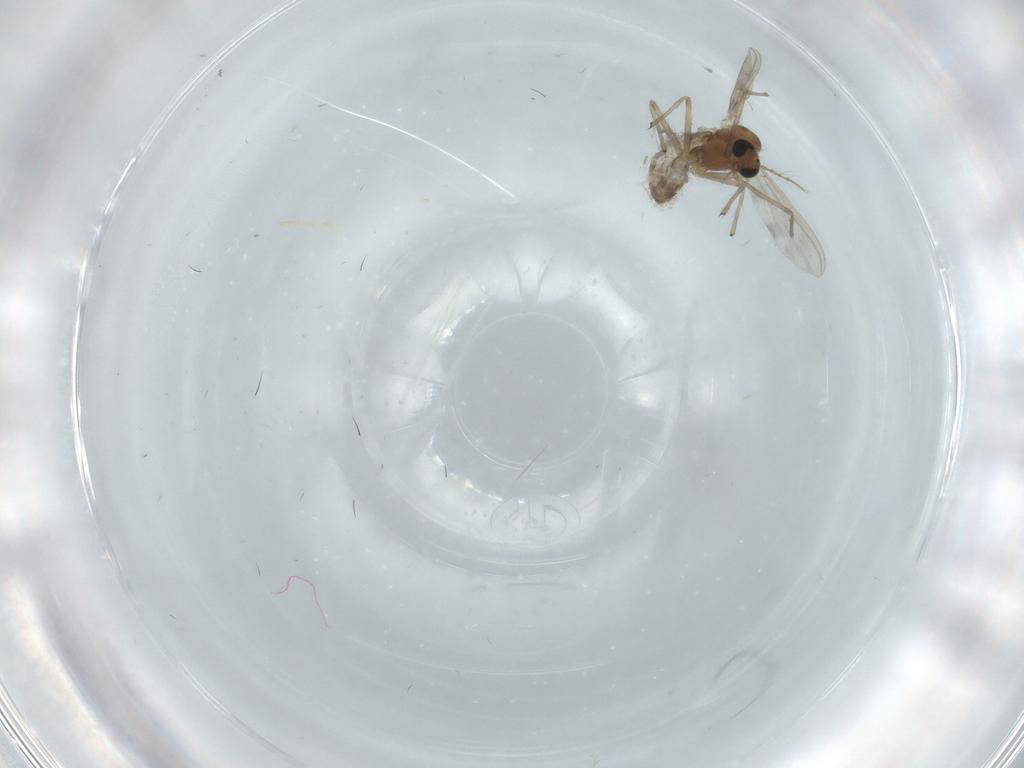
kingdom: Animalia
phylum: Arthropoda
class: Insecta
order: Diptera
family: Chironomidae
